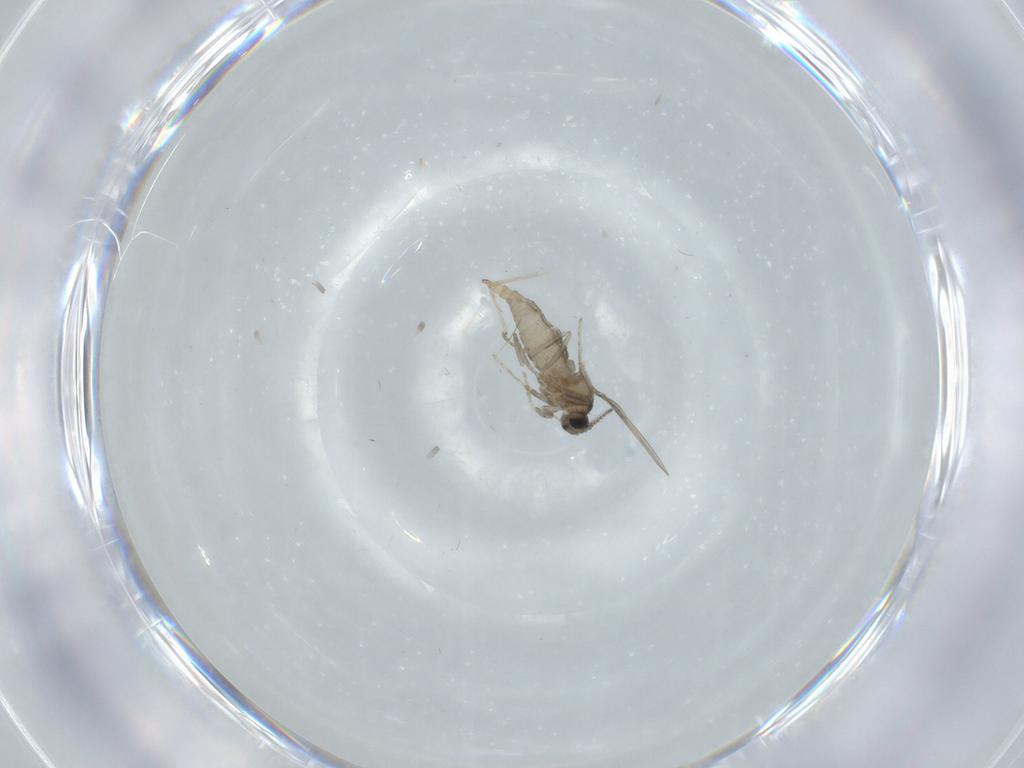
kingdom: Animalia
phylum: Arthropoda
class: Insecta
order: Diptera
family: Cecidomyiidae
